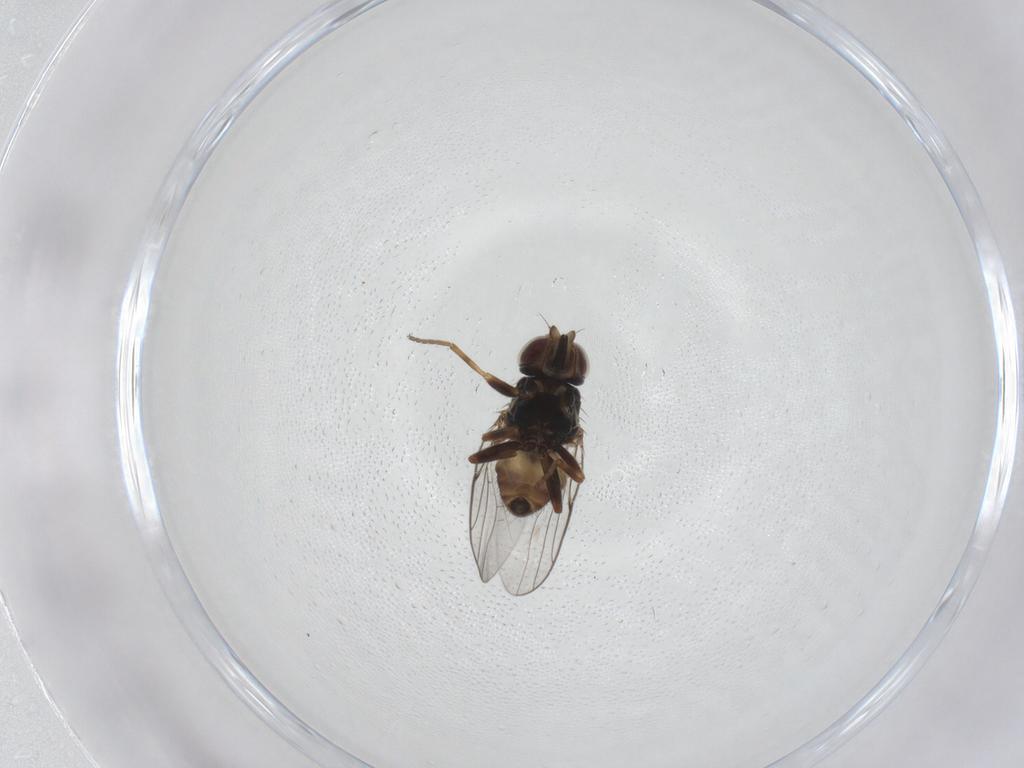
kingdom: Animalia
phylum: Arthropoda
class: Insecta
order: Diptera
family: Chloropidae
